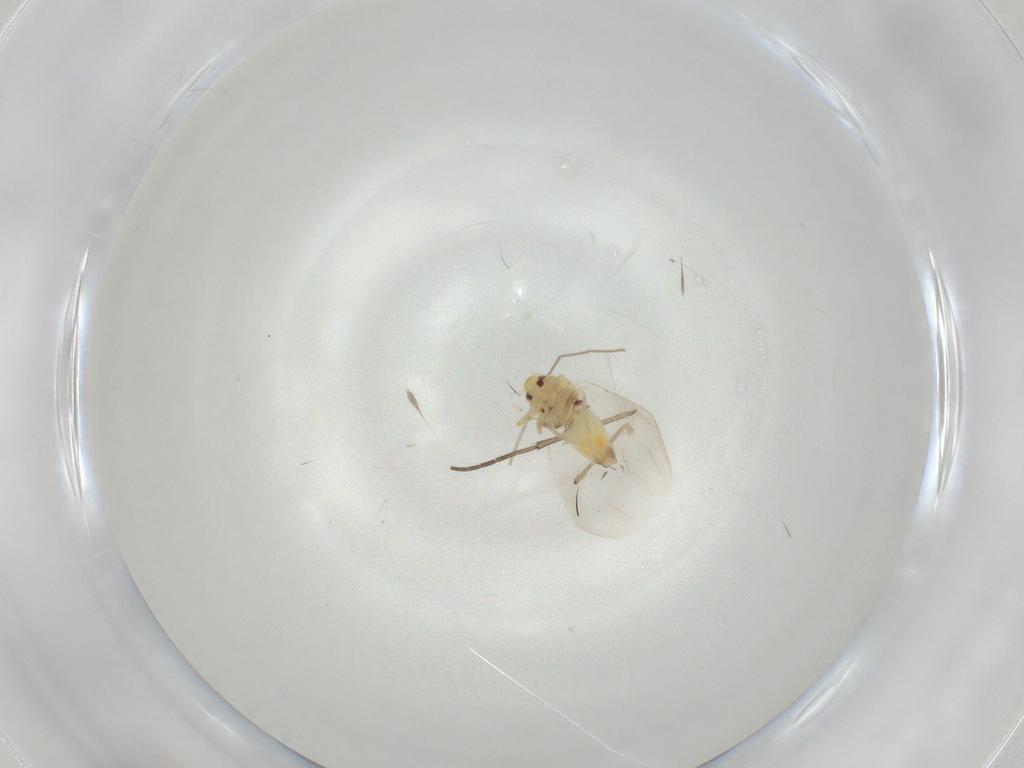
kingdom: Animalia
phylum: Arthropoda
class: Insecta
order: Hemiptera
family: Aleyrodidae
